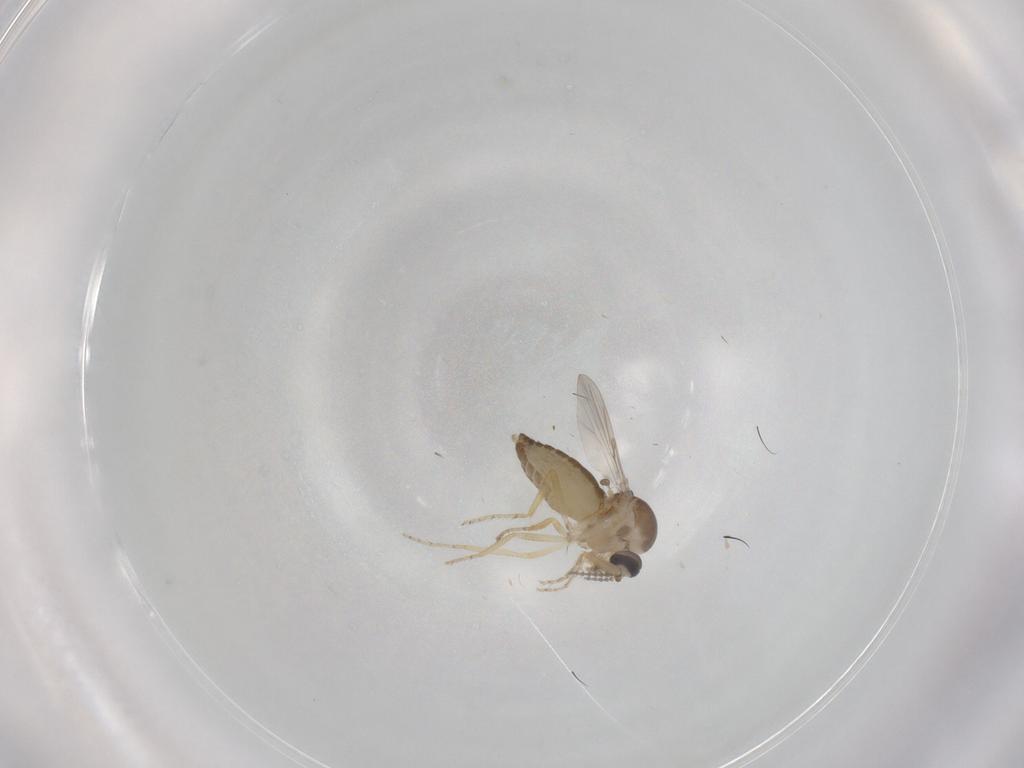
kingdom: Animalia
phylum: Arthropoda
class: Insecta
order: Diptera
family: Ceratopogonidae
